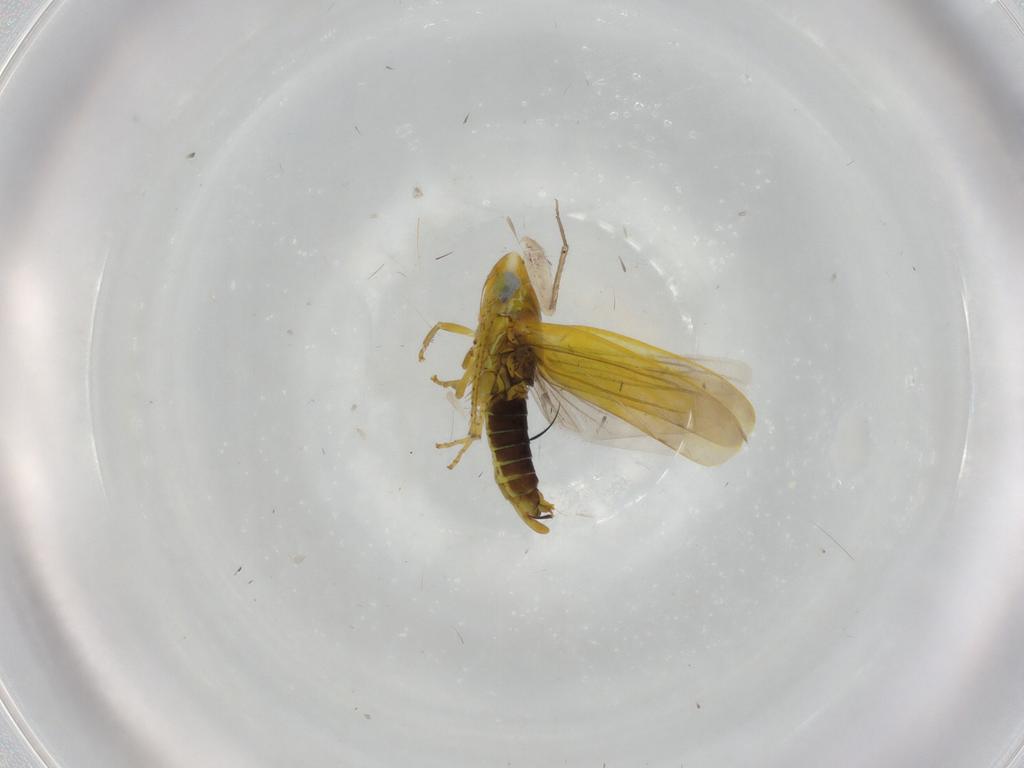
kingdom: Animalia
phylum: Arthropoda
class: Insecta
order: Hemiptera
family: Cicadellidae
